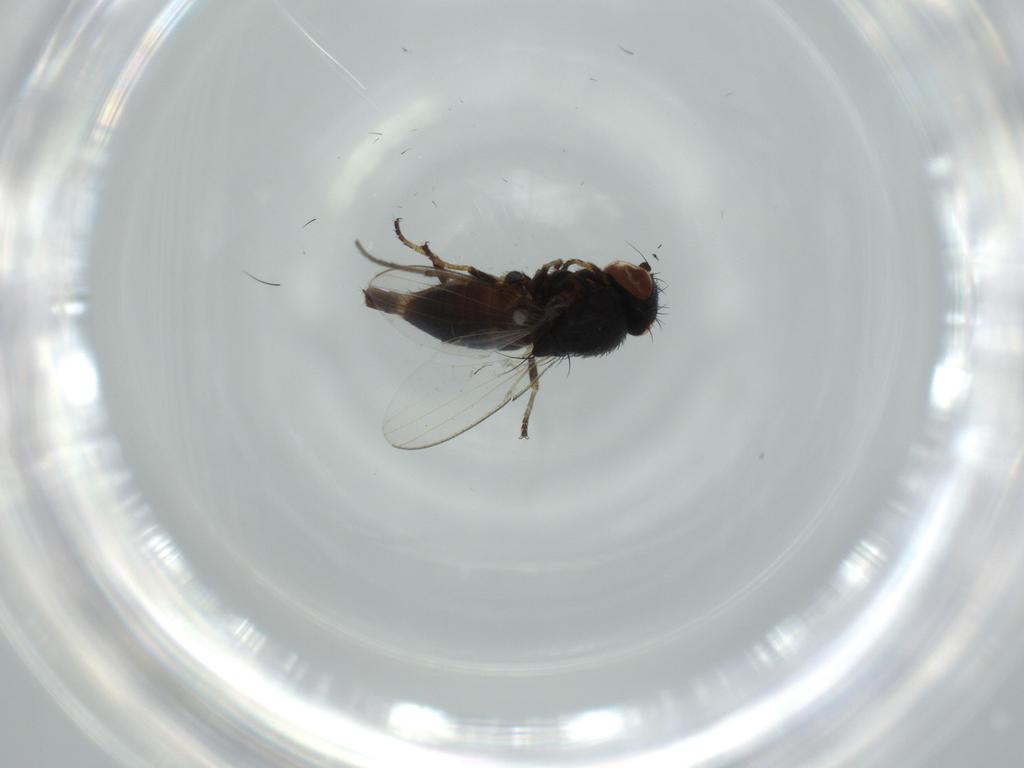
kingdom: Animalia
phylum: Arthropoda
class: Insecta
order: Diptera
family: Milichiidae
